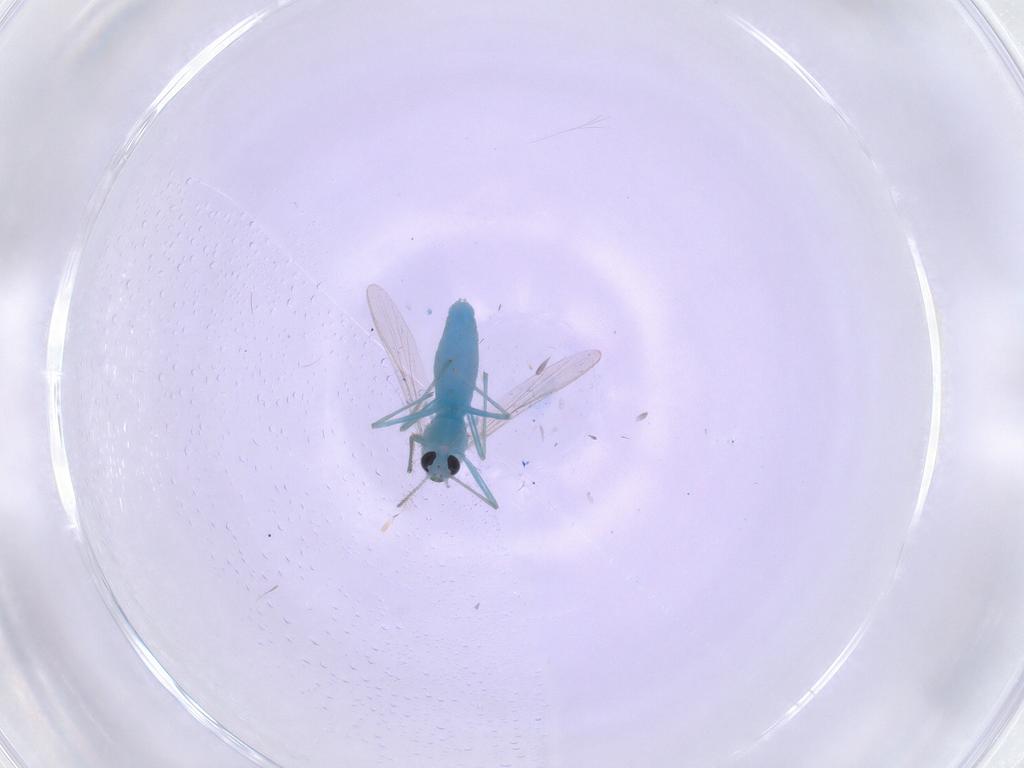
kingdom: Animalia
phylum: Arthropoda
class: Insecta
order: Diptera
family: Chironomidae
